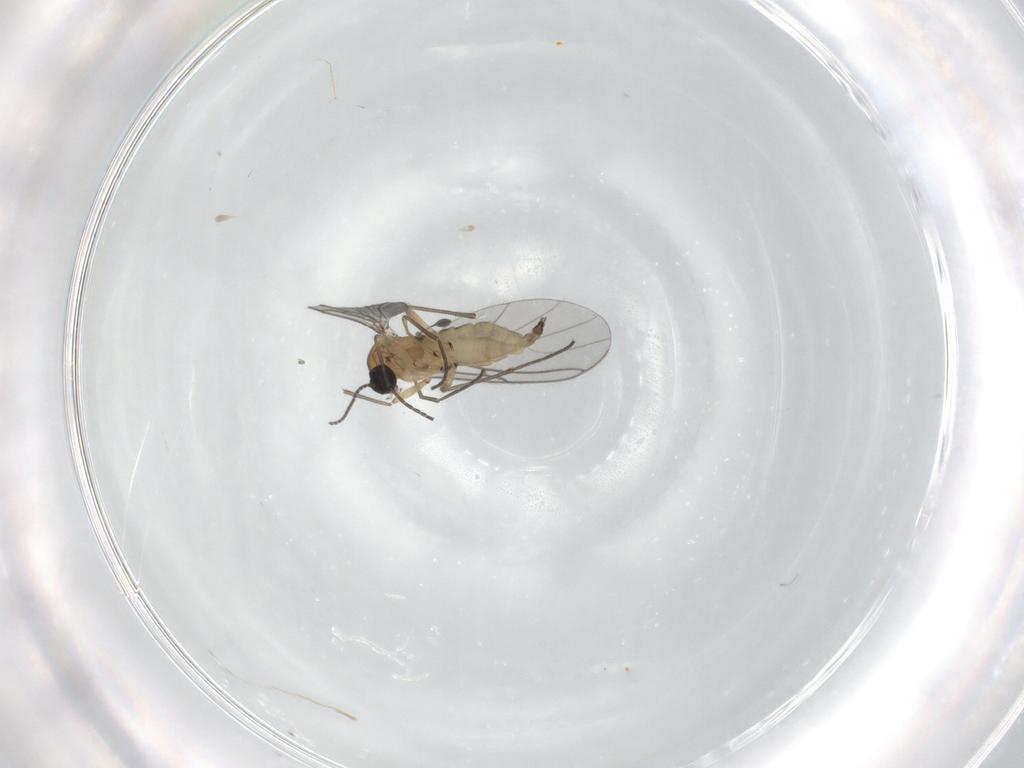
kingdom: Animalia
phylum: Arthropoda
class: Insecta
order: Diptera
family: Sciaridae
